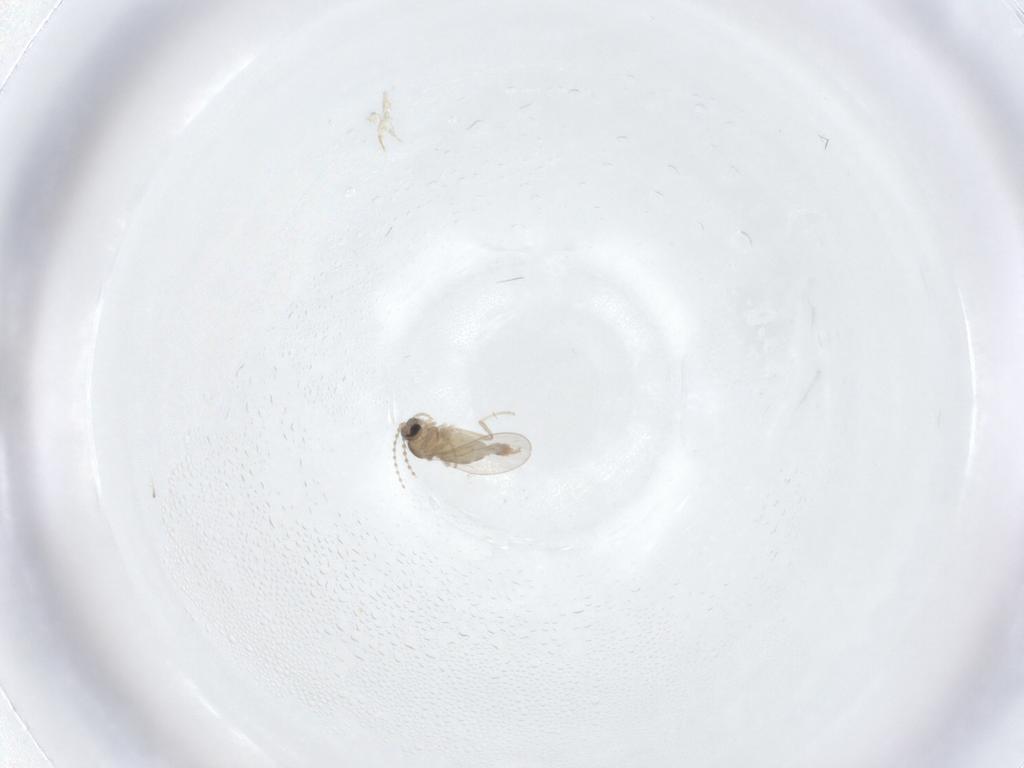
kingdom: Animalia
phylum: Arthropoda
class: Insecta
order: Diptera
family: Cecidomyiidae
